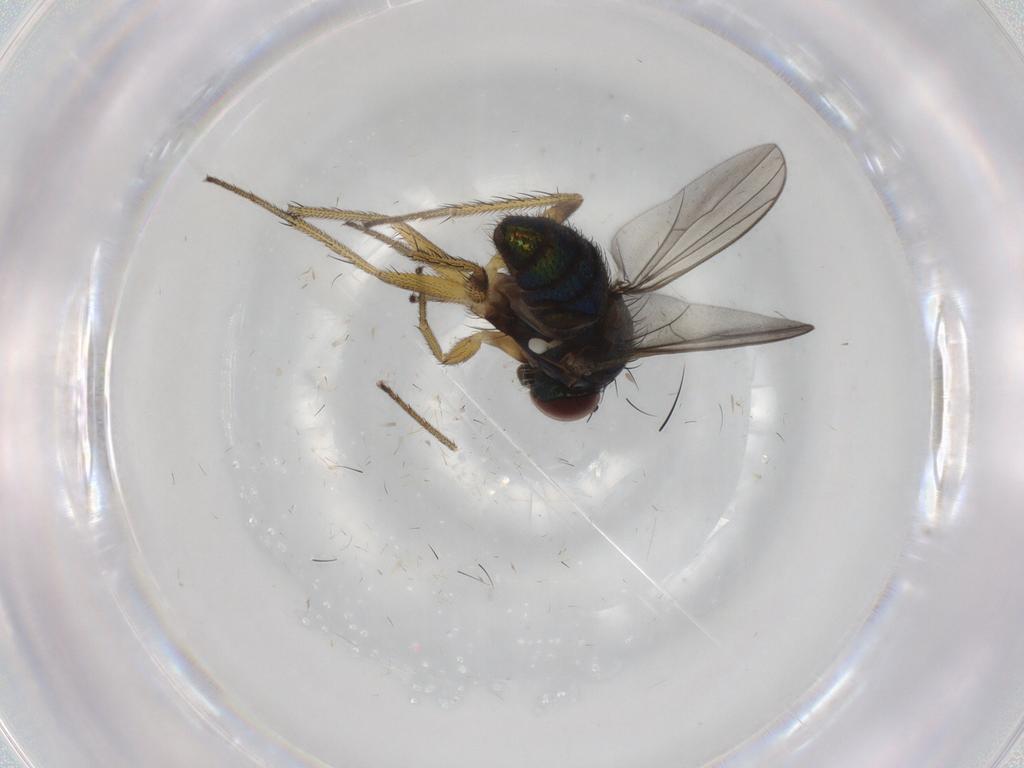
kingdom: Animalia
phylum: Arthropoda
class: Insecta
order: Diptera
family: Dolichopodidae
